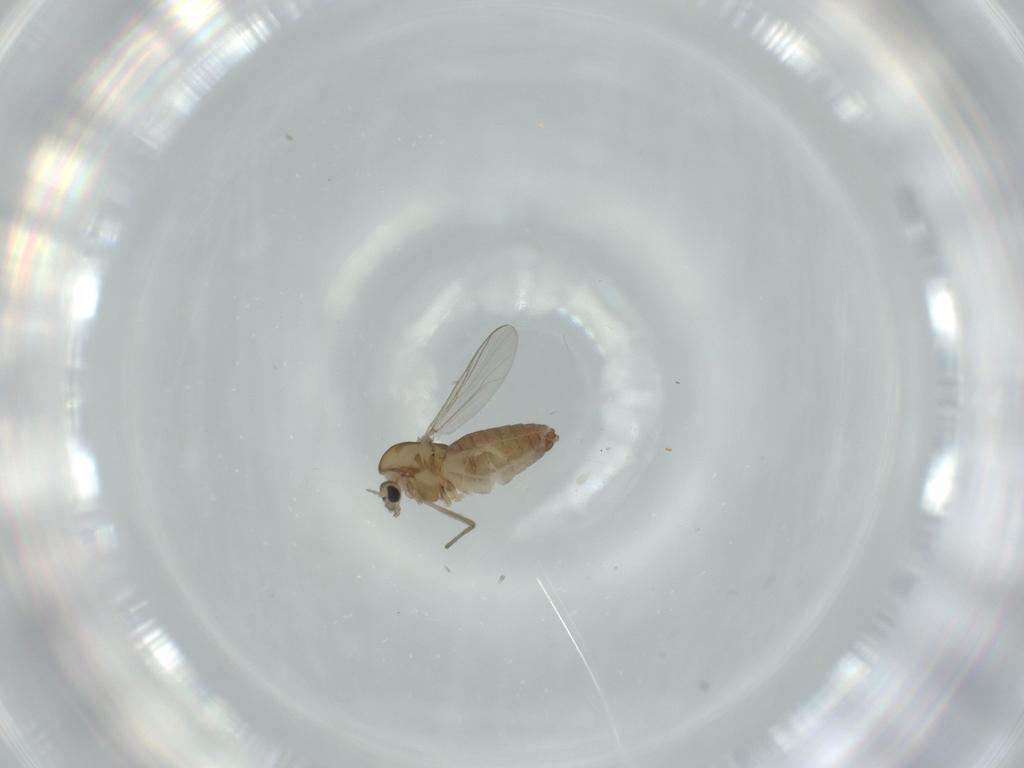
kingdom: Animalia
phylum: Arthropoda
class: Insecta
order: Diptera
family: Chironomidae
